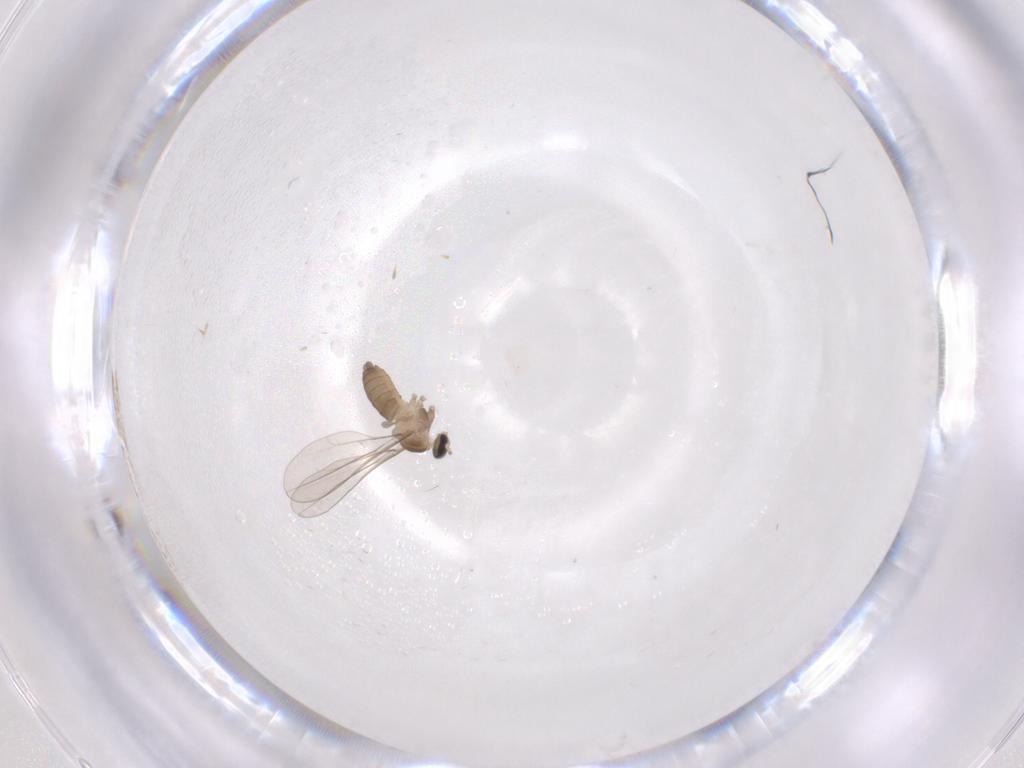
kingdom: Animalia
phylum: Arthropoda
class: Insecta
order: Diptera
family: Cecidomyiidae
